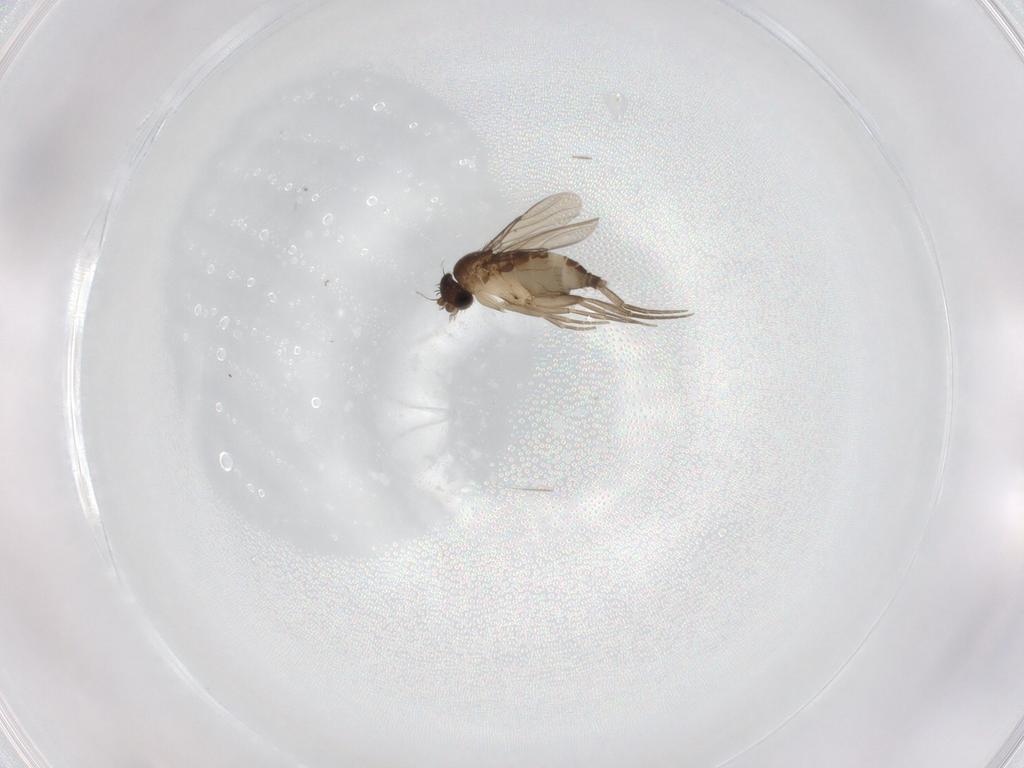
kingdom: Animalia
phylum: Arthropoda
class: Insecta
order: Diptera
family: Phoridae
